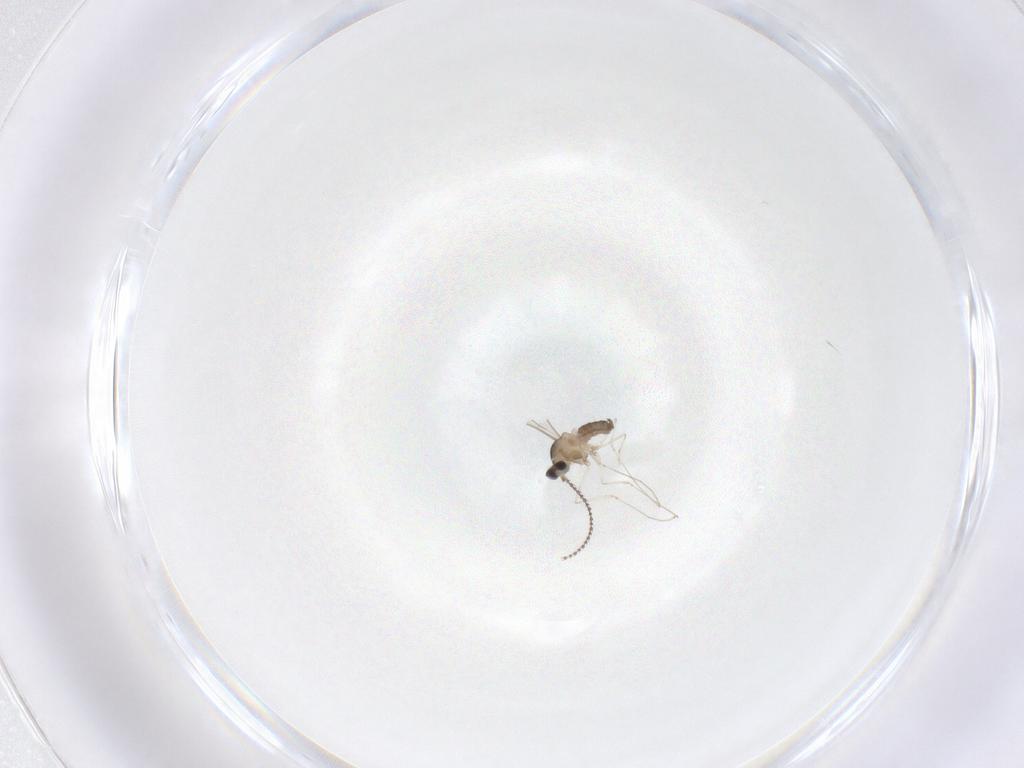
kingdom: Animalia
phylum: Arthropoda
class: Insecta
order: Diptera
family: Cecidomyiidae
